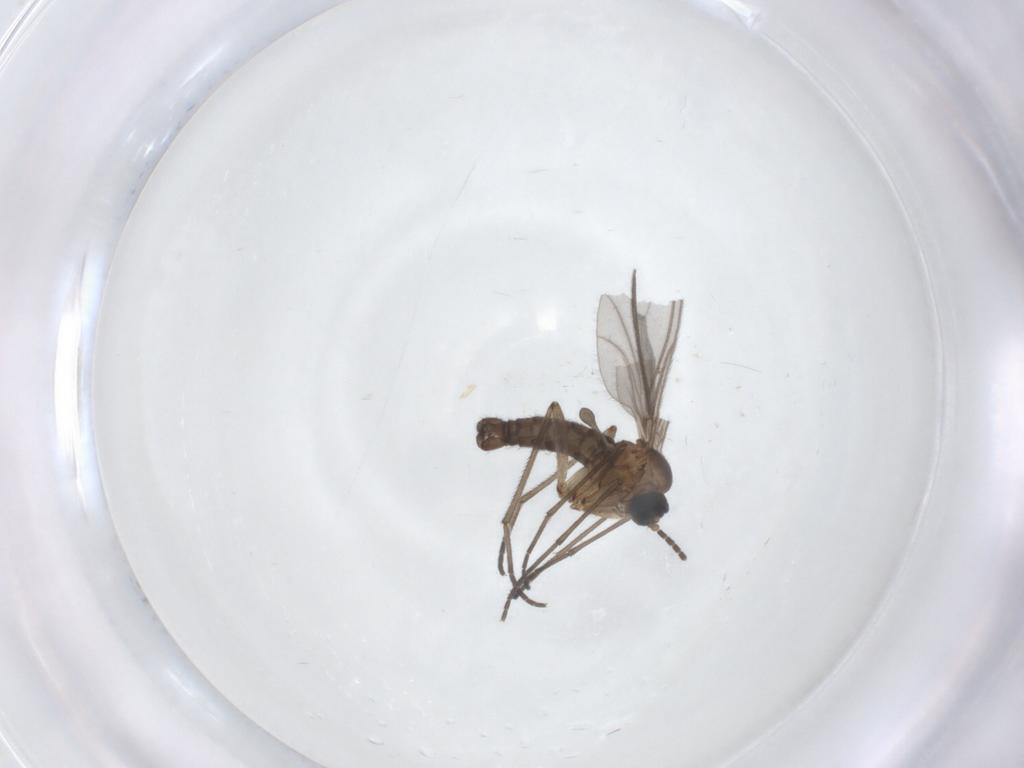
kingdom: Animalia
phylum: Arthropoda
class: Insecta
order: Diptera
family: Sciaridae
